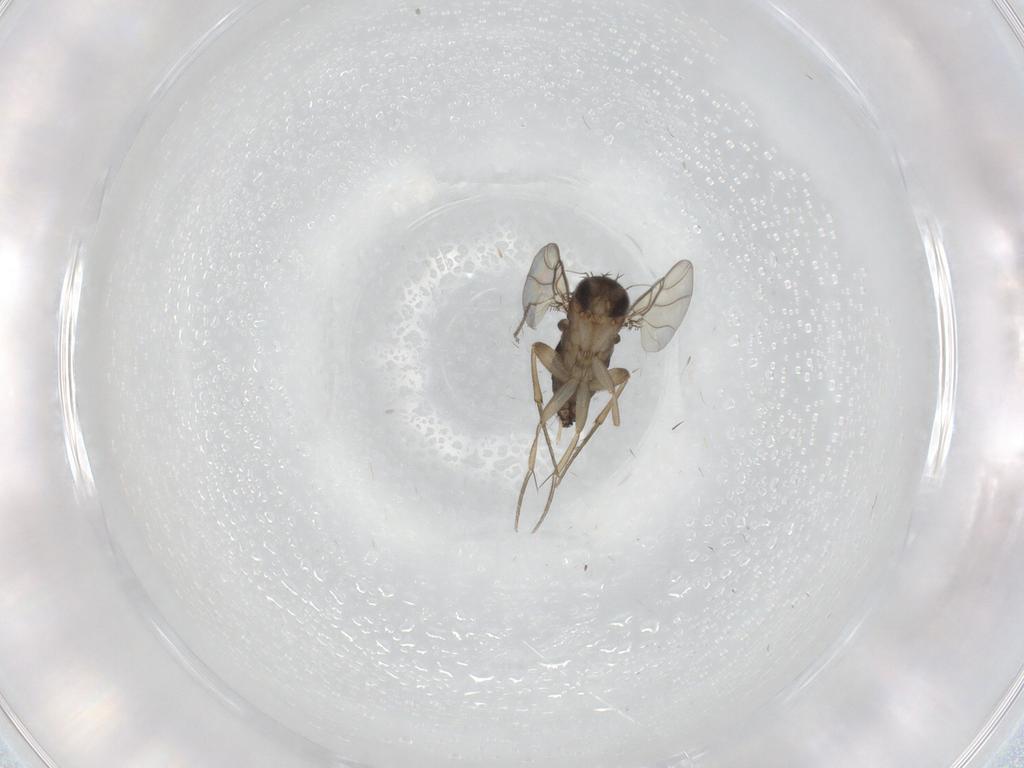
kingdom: Animalia
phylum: Arthropoda
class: Insecta
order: Diptera
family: Phoridae
